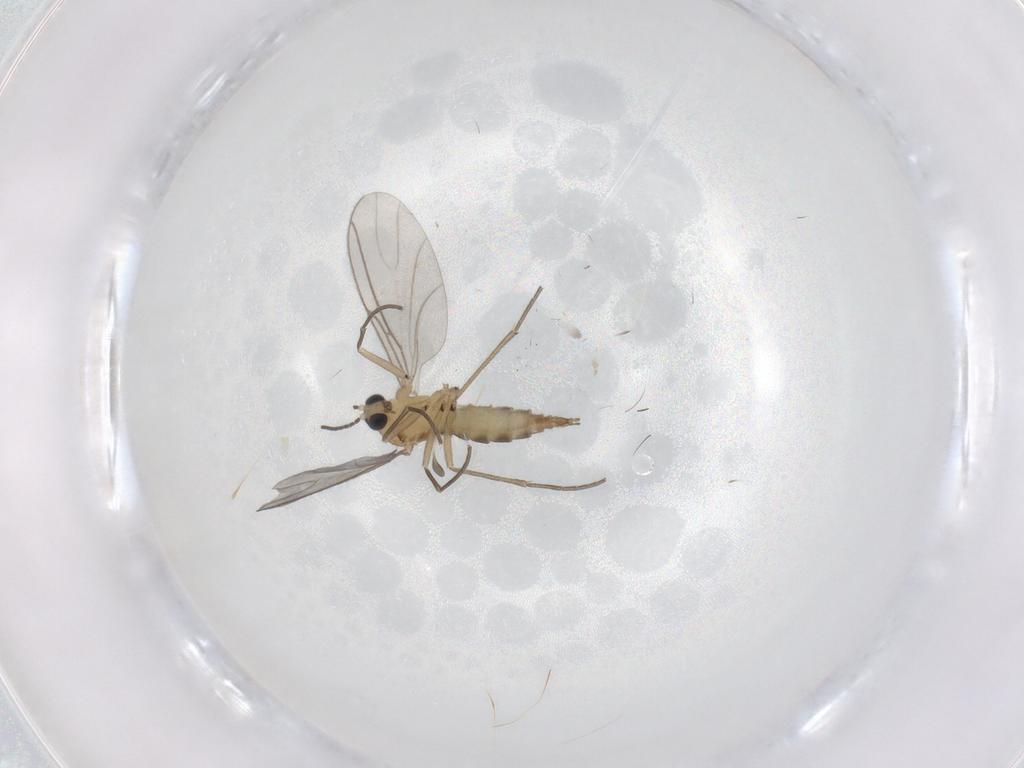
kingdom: Animalia
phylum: Arthropoda
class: Insecta
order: Diptera
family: Sciaridae
